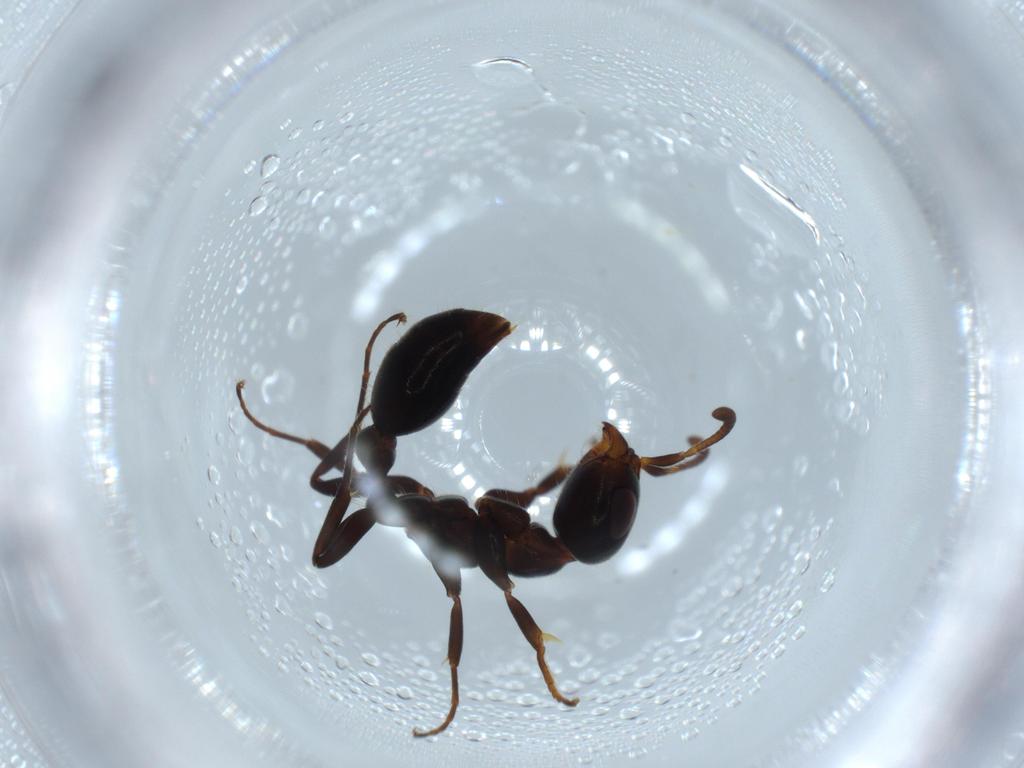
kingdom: Animalia
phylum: Arthropoda
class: Insecta
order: Hymenoptera
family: Formicidae
